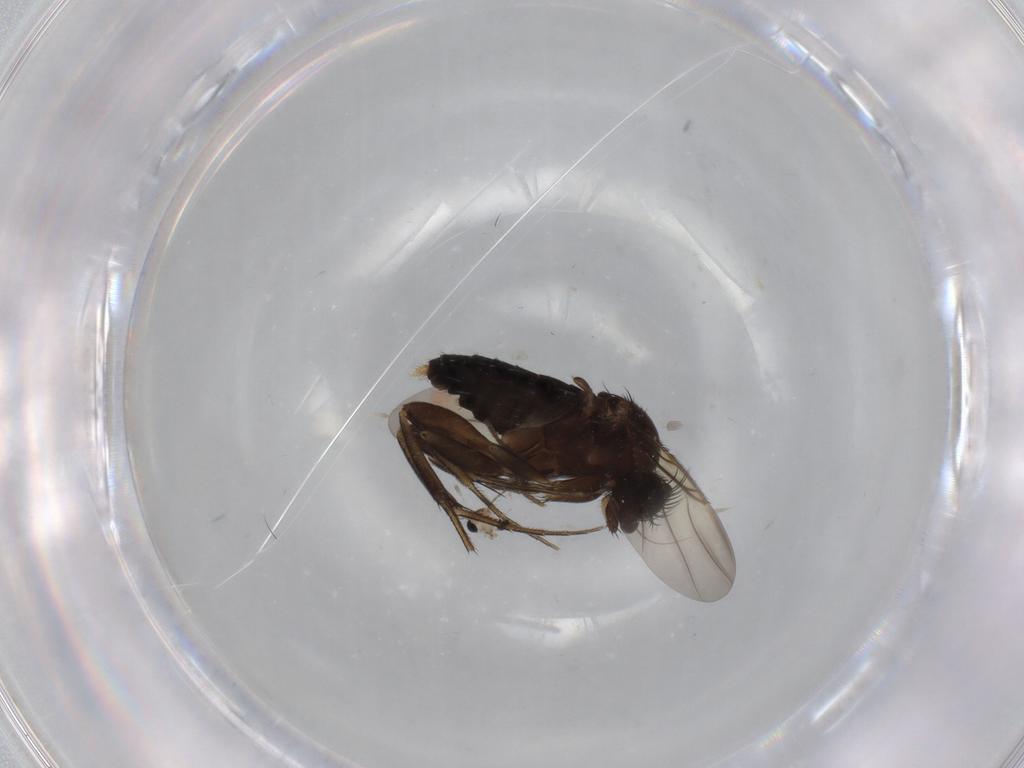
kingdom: Animalia
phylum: Arthropoda
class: Insecta
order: Diptera
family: Phoridae
